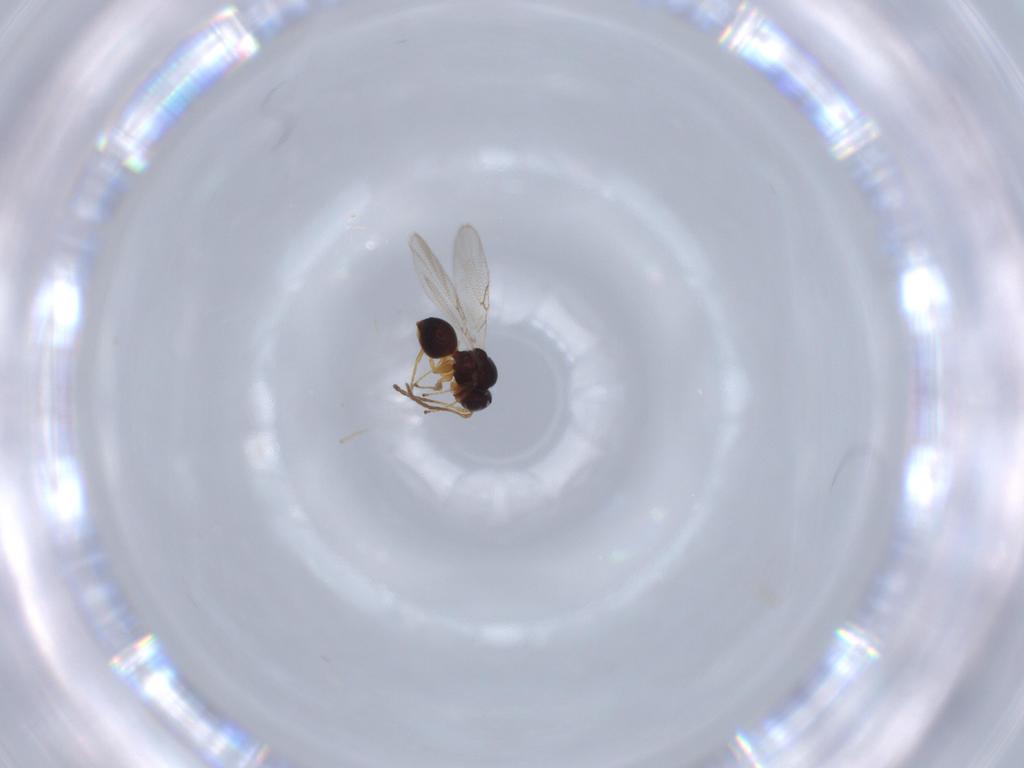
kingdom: Animalia
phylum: Arthropoda
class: Insecta
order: Hymenoptera
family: Figitidae
